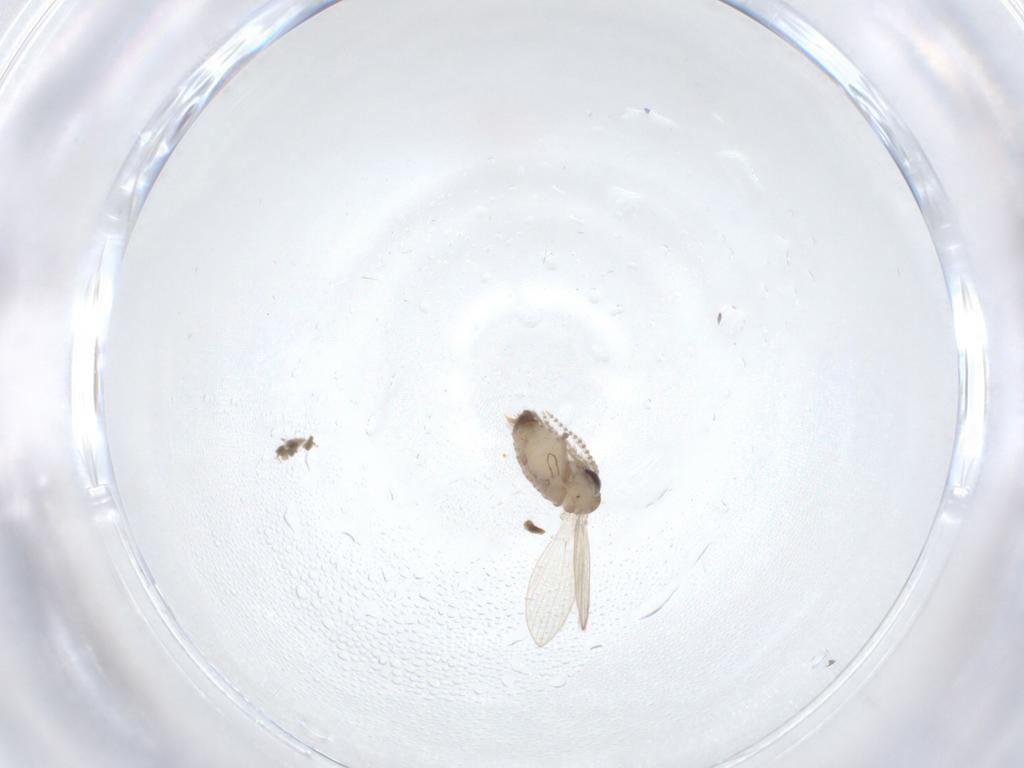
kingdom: Animalia
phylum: Arthropoda
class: Insecta
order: Diptera
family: Psychodidae
